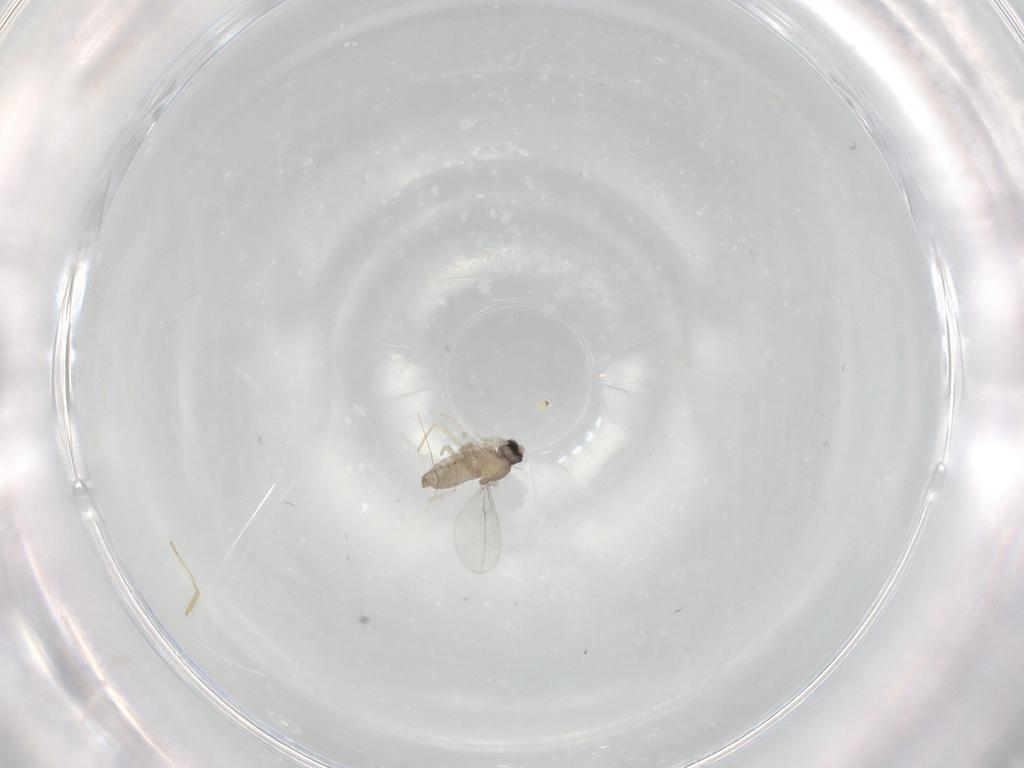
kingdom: Animalia
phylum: Arthropoda
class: Insecta
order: Diptera
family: Cecidomyiidae
